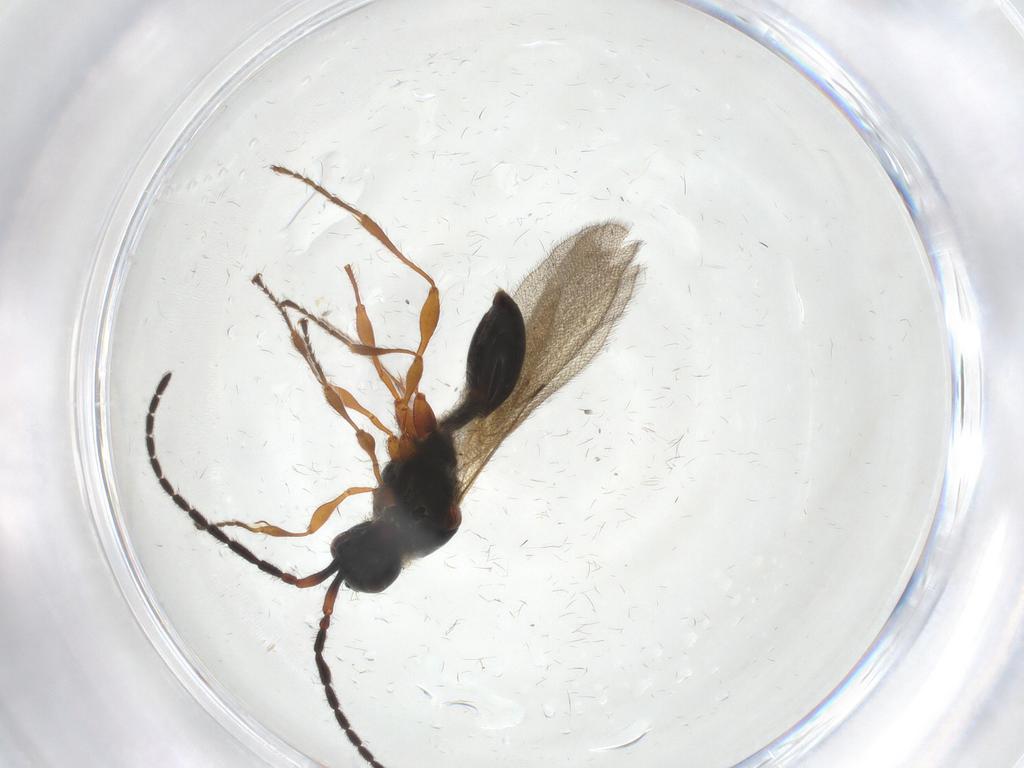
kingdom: Animalia
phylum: Arthropoda
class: Insecta
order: Hymenoptera
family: Diapriidae
